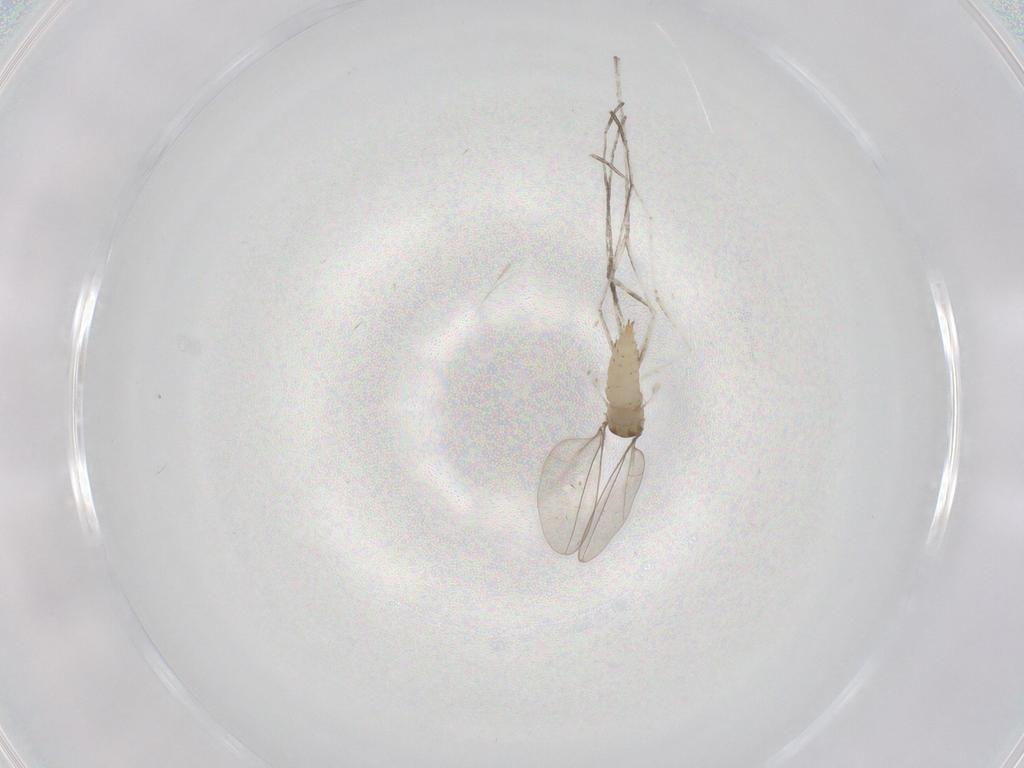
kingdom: Animalia
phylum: Arthropoda
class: Insecta
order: Diptera
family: Cecidomyiidae
